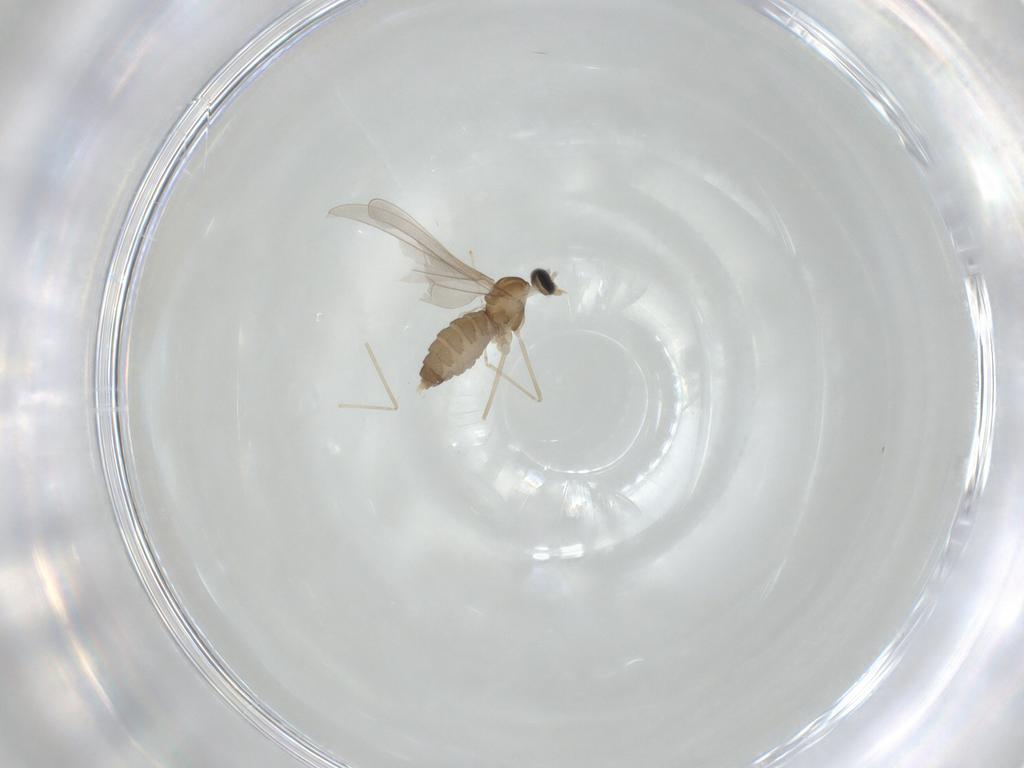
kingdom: Animalia
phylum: Arthropoda
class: Insecta
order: Diptera
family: Cecidomyiidae
